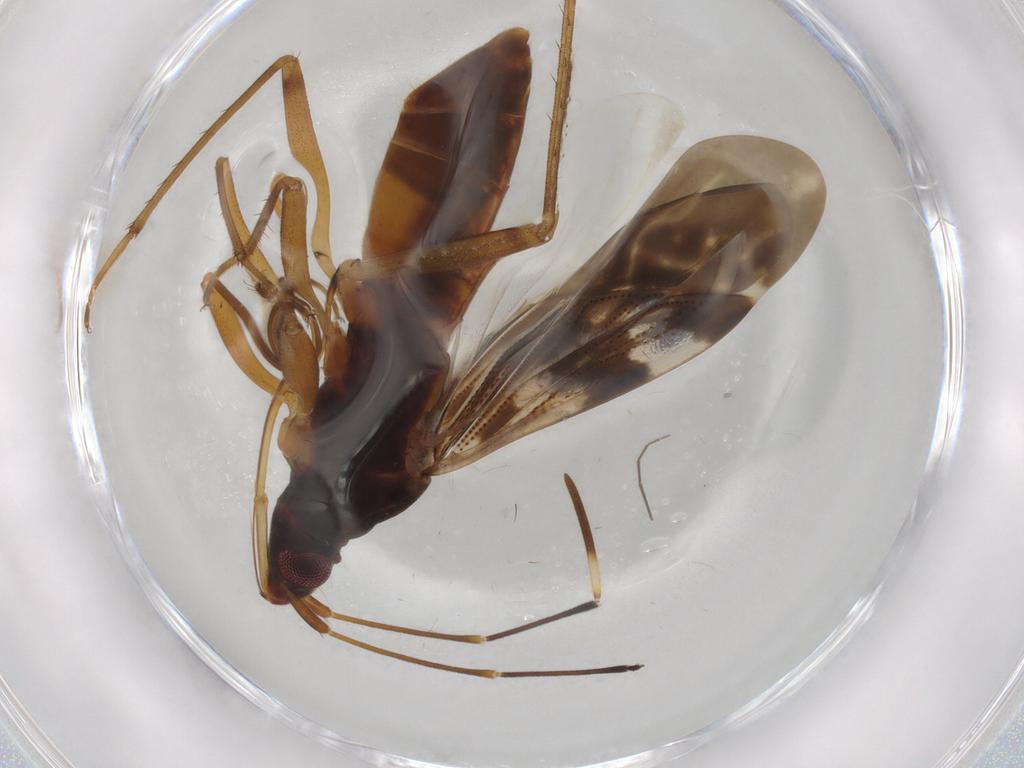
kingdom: Animalia
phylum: Arthropoda
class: Insecta
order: Hemiptera
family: Rhyparochromidae
